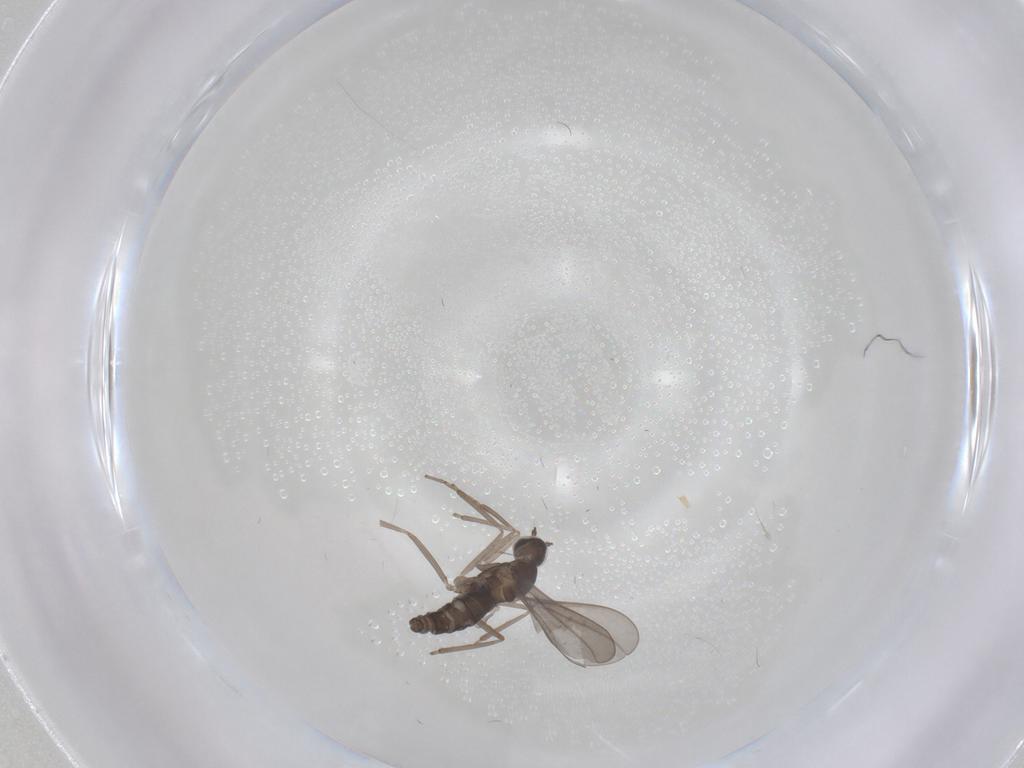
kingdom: Animalia
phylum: Arthropoda
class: Insecta
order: Diptera
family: Cecidomyiidae
